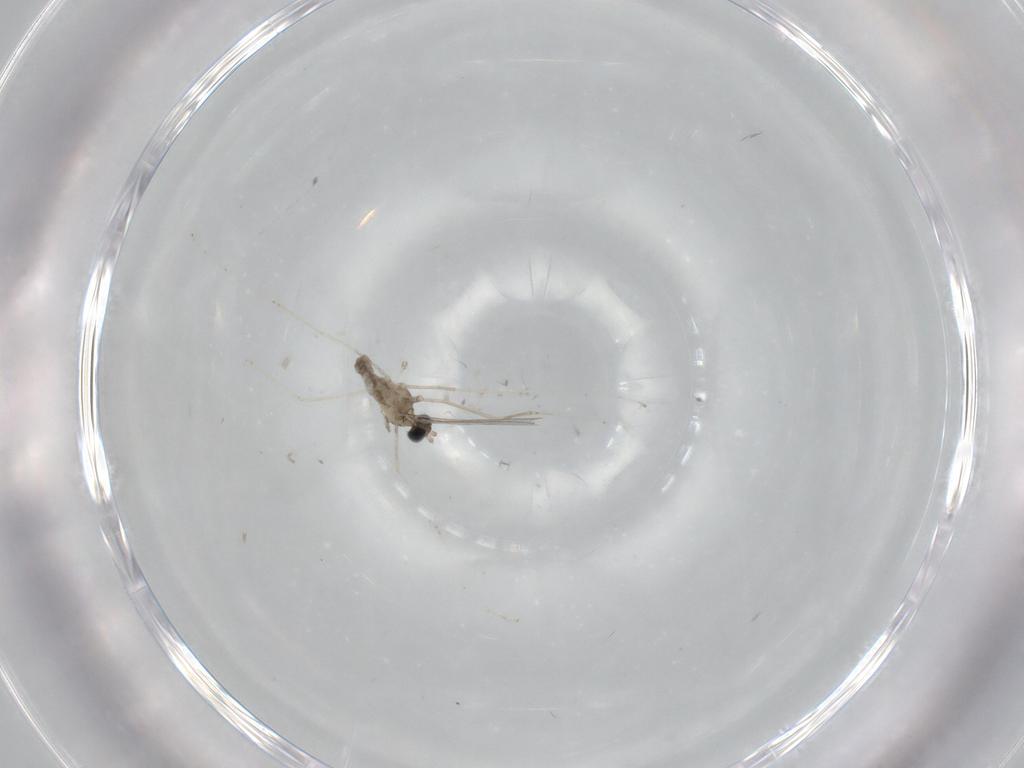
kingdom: Animalia
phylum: Arthropoda
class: Insecta
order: Diptera
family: Cecidomyiidae
